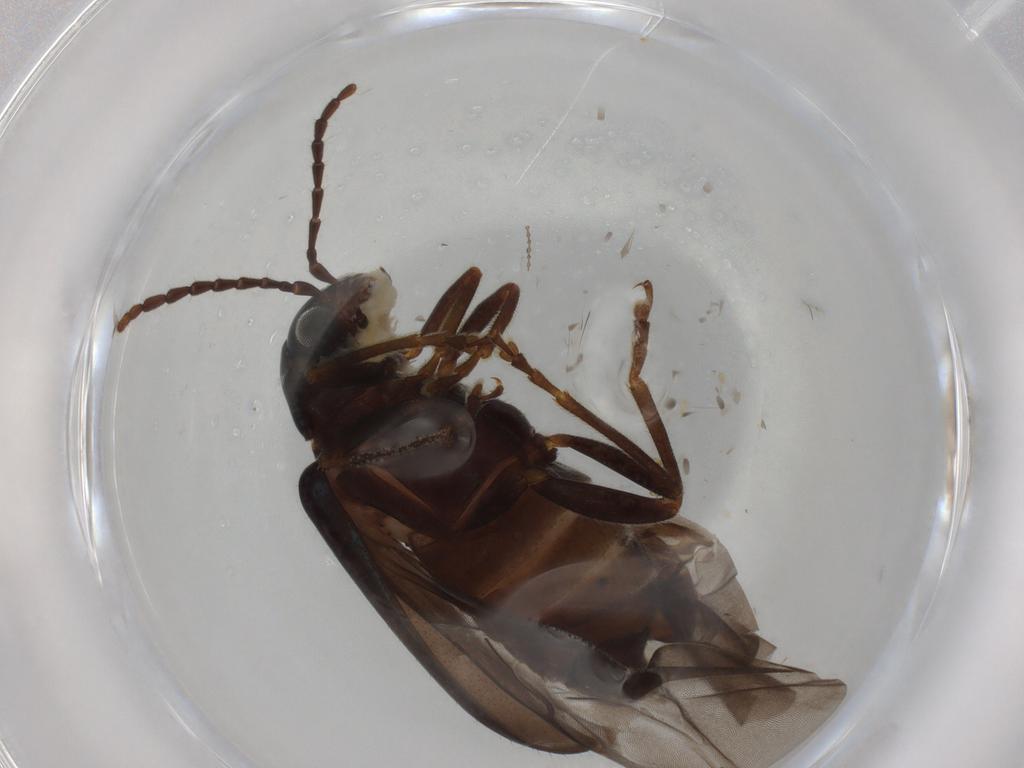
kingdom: Animalia
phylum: Arthropoda
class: Insecta
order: Coleoptera
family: Chrysomelidae
